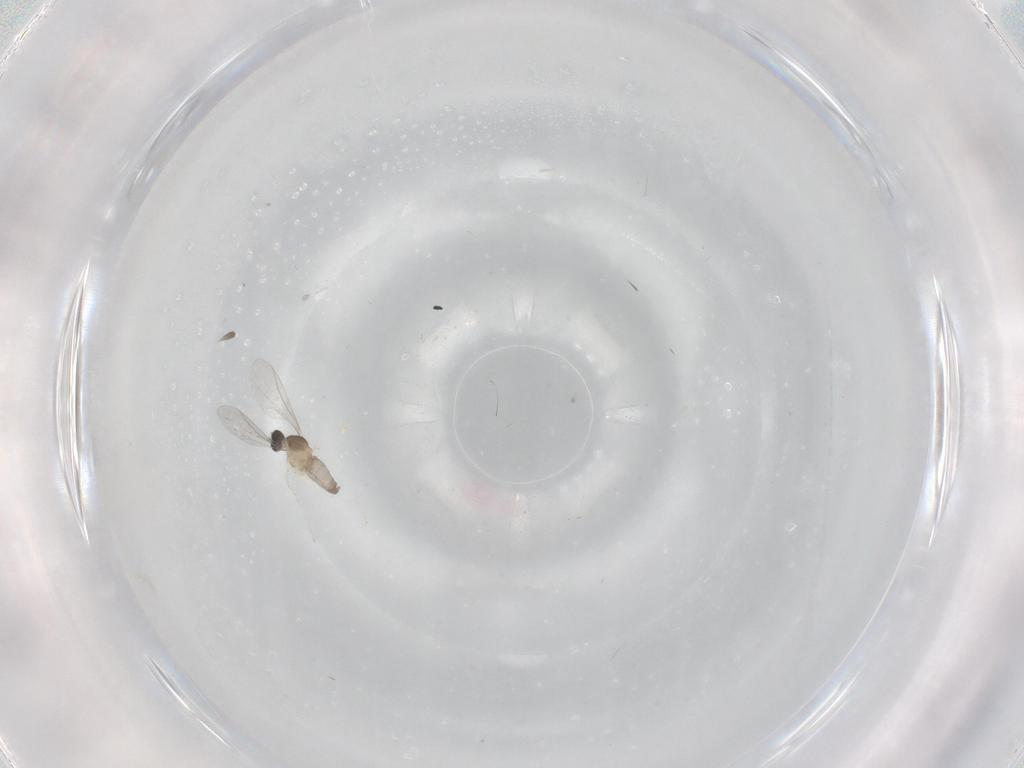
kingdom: Animalia
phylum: Arthropoda
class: Insecta
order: Diptera
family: Cecidomyiidae
